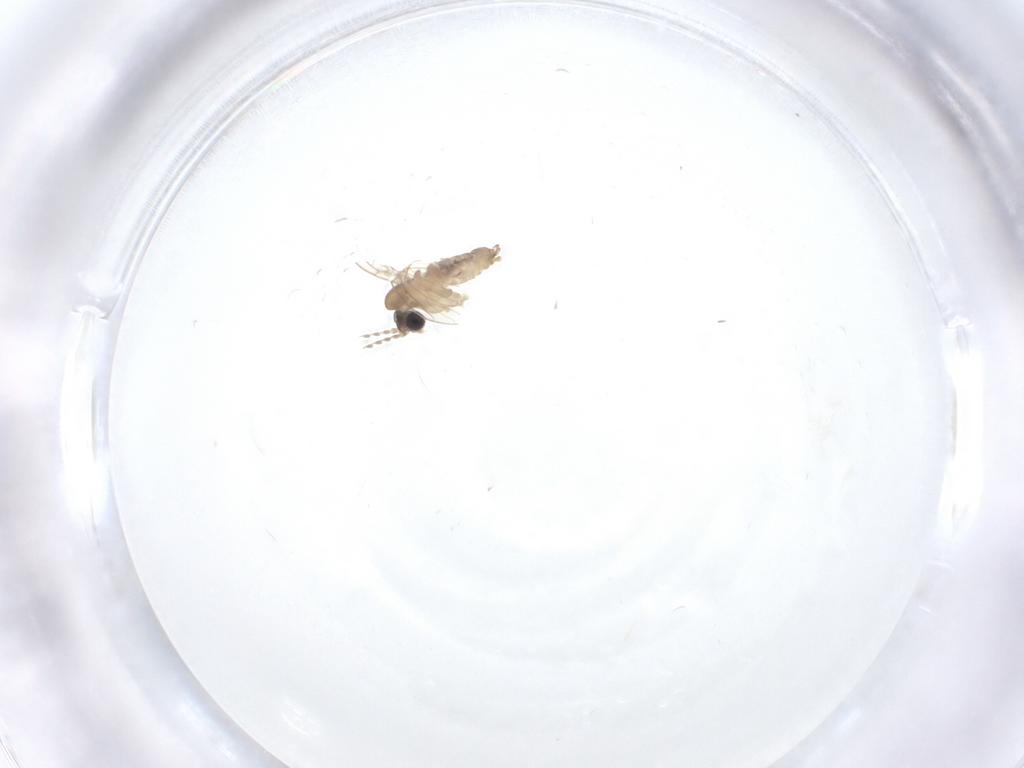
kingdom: Animalia
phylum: Arthropoda
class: Insecta
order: Diptera
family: Psychodidae
